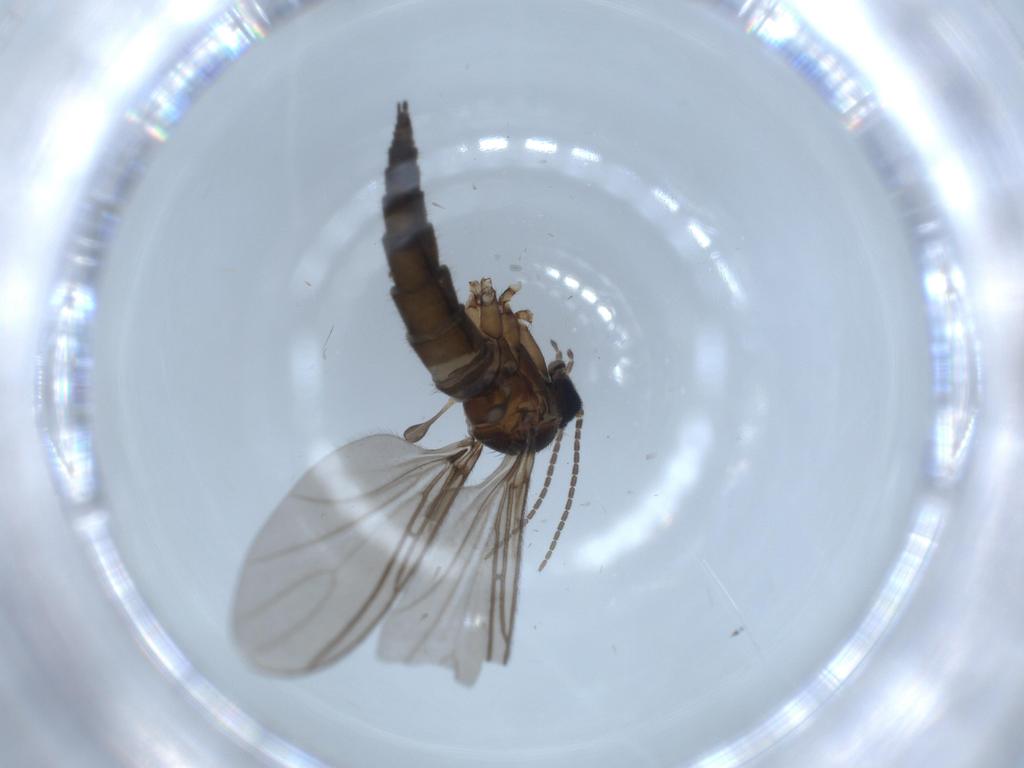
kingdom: Animalia
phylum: Arthropoda
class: Insecta
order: Diptera
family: Sciaridae
